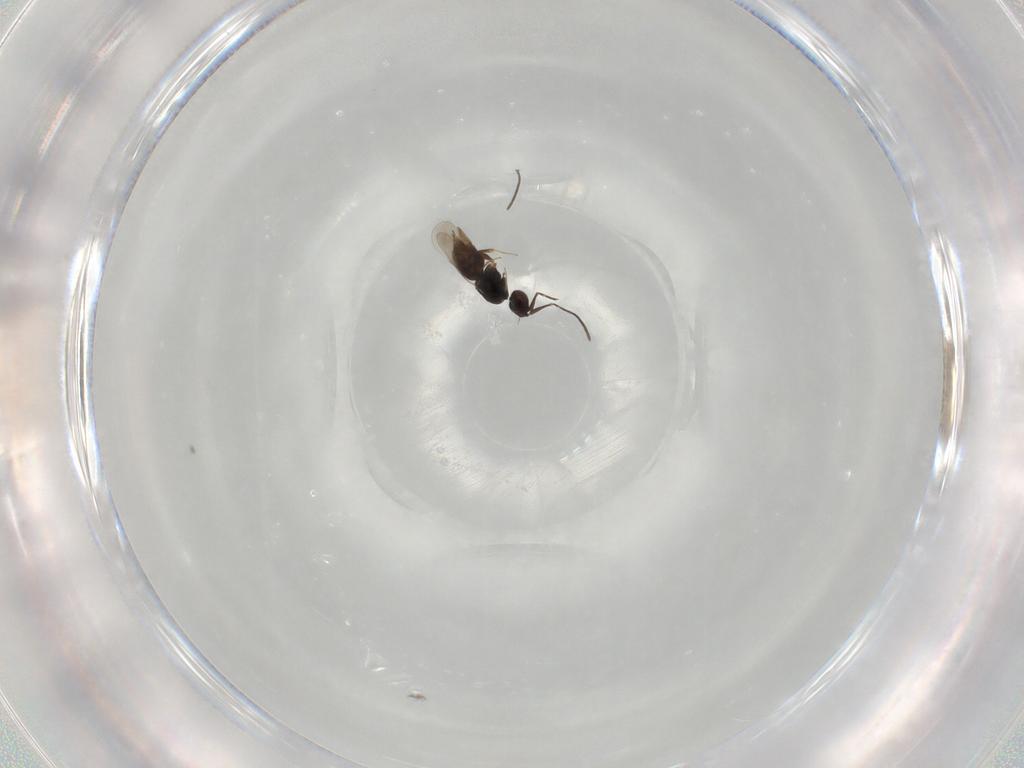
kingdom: Animalia
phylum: Arthropoda
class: Insecta
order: Hymenoptera
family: Ceraphronidae
